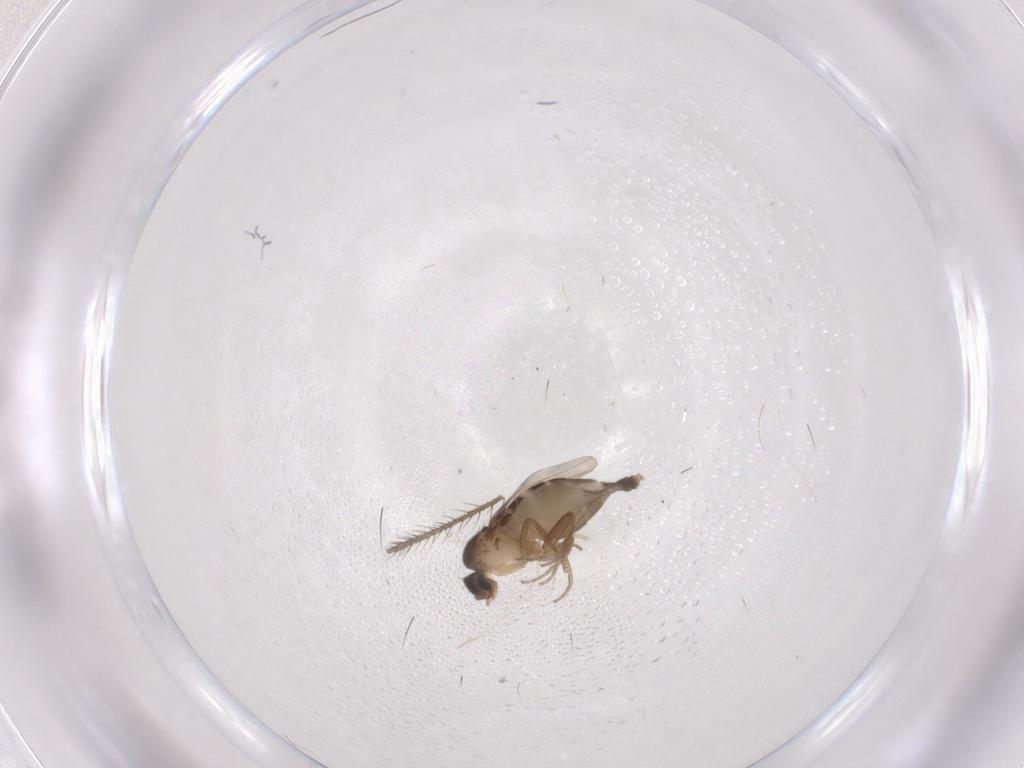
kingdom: Animalia
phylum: Arthropoda
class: Insecta
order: Diptera
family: Phoridae
